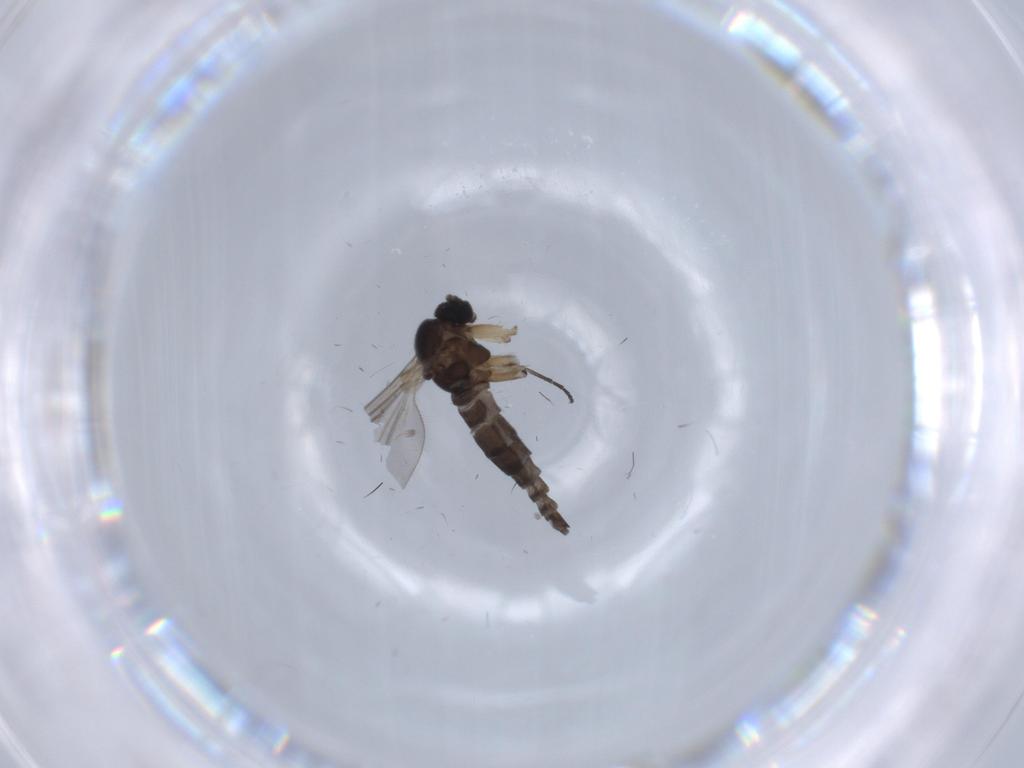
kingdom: Animalia
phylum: Arthropoda
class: Insecta
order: Diptera
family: Sciaridae
